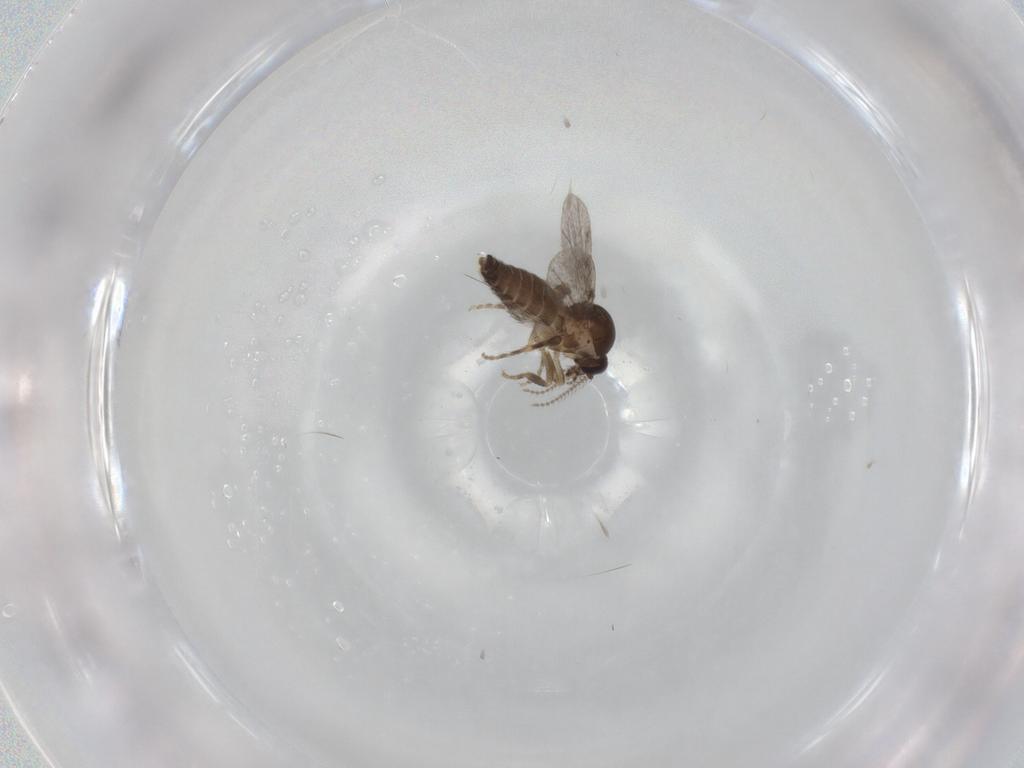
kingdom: Animalia
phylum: Arthropoda
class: Insecta
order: Diptera
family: Ceratopogonidae
